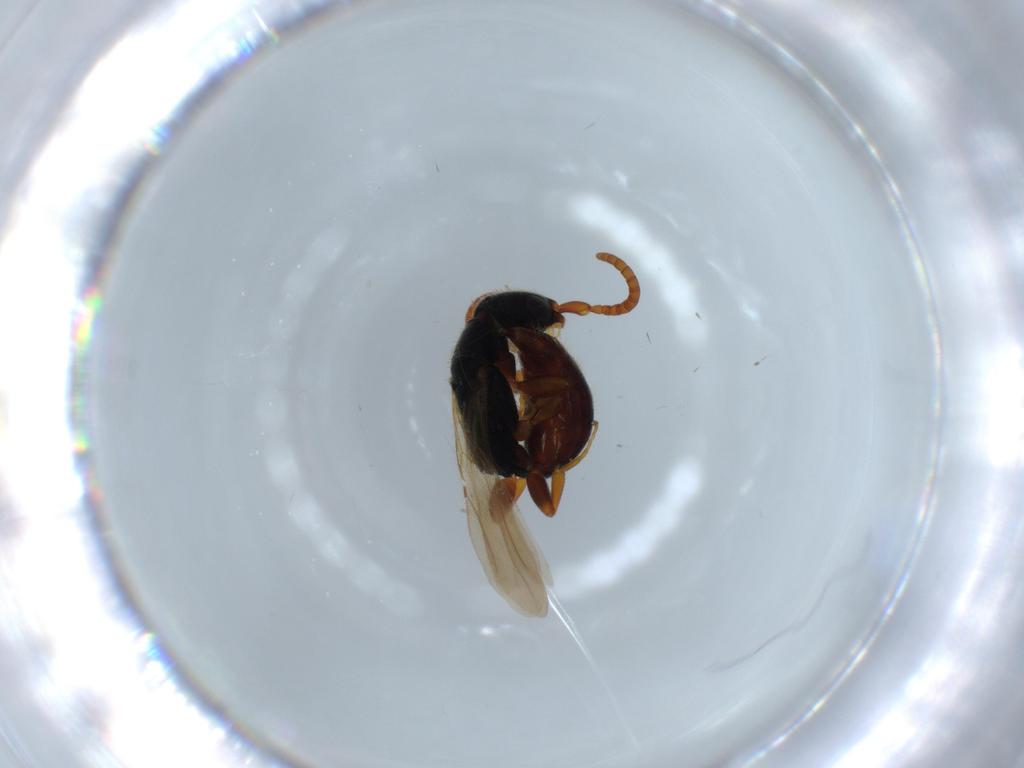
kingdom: Animalia
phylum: Arthropoda
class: Insecta
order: Hymenoptera
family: Bethylidae
